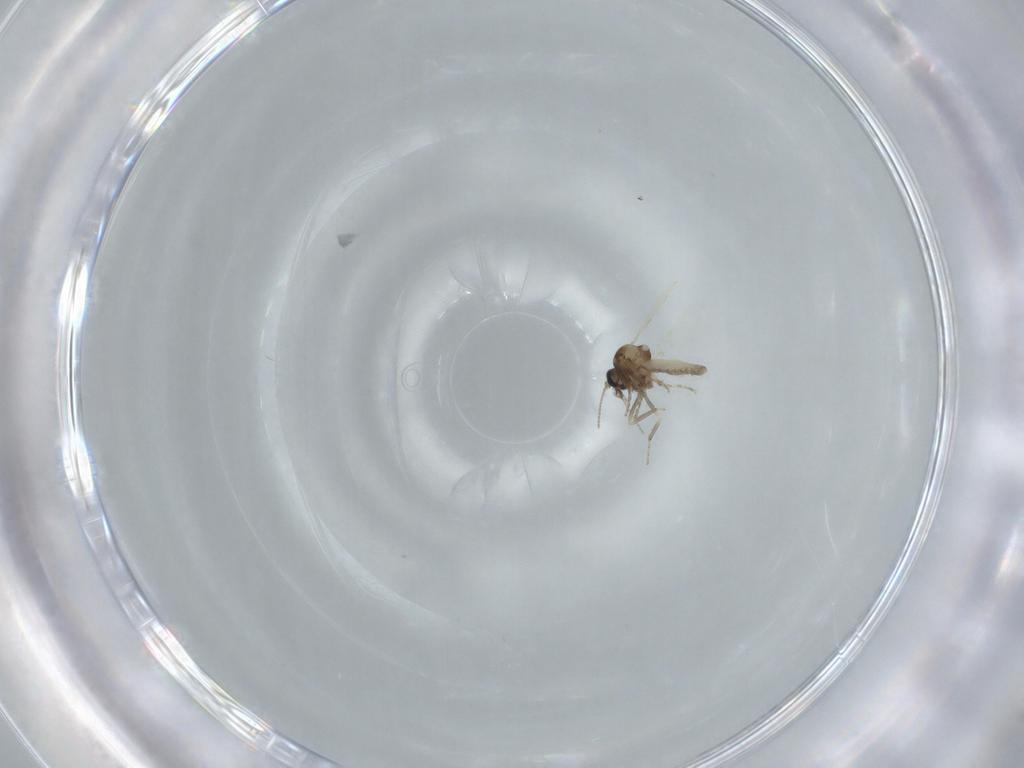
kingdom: Animalia
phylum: Arthropoda
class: Insecta
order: Diptera
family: Ceratopogonidae
